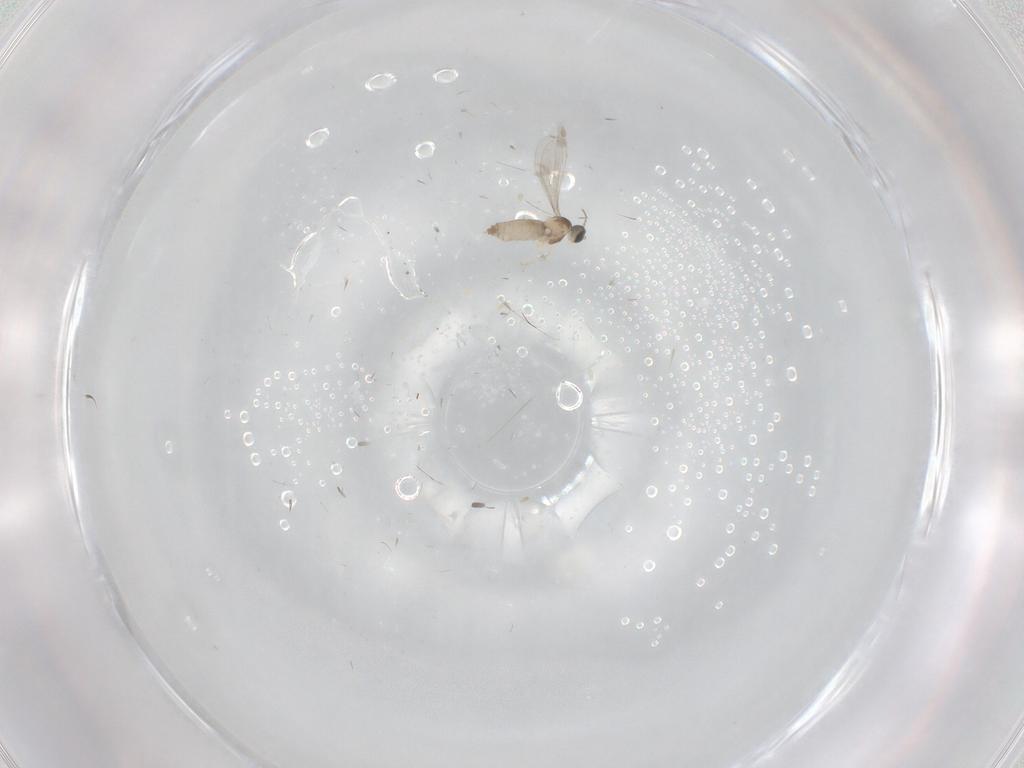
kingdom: Animalia
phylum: Arthropoda
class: Insecta
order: Diptera
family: Cecidomyiidae
